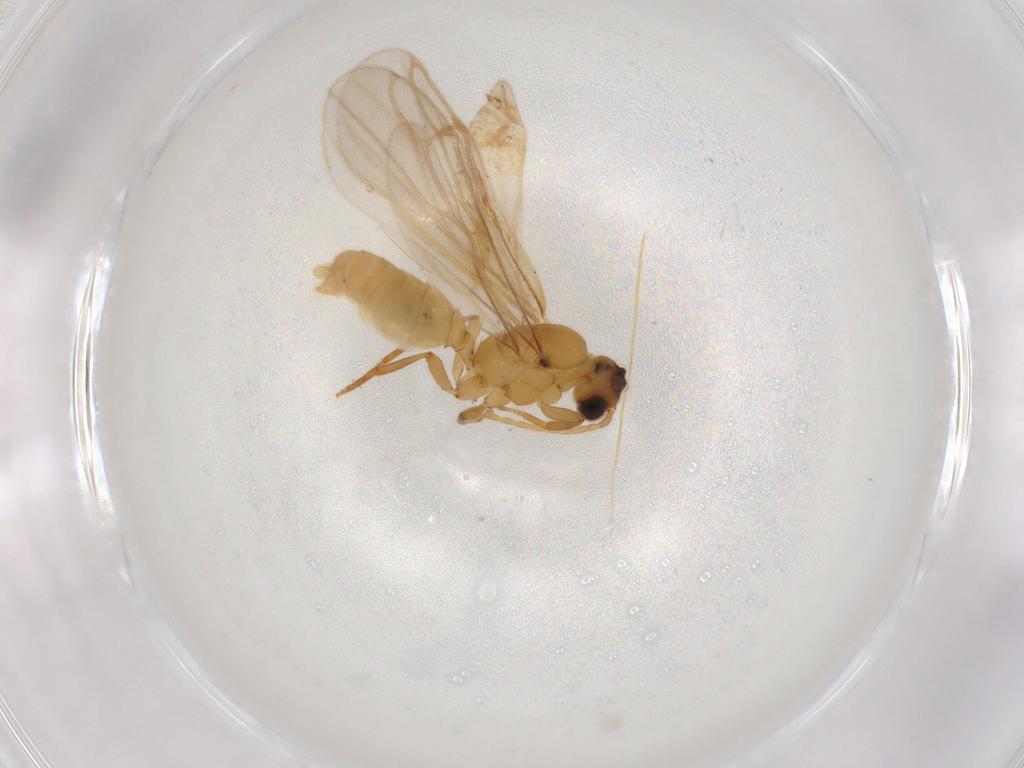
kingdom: Animalia
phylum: Arthropoda
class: Insecta
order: Hymenoptera
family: Formicidae
